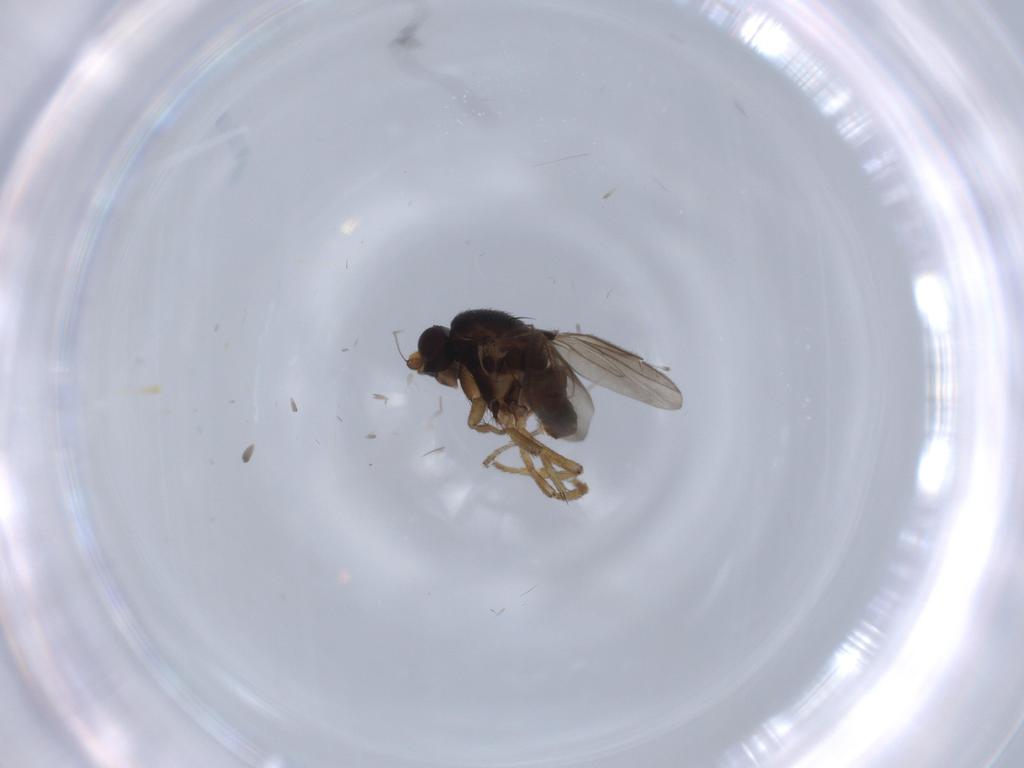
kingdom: Animalia
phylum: Arthropoda
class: Insecta
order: Diptera
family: Sphaeroceridae
